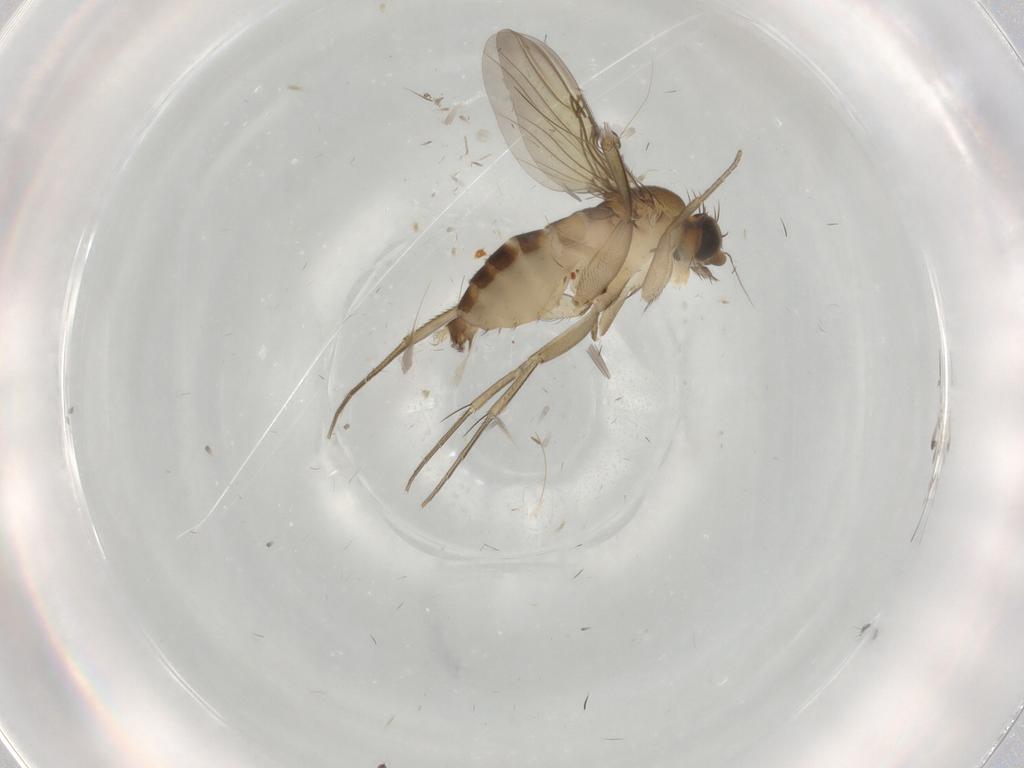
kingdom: Animalia
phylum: Arthropoda
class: Insecta
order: Diptera
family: Phoridae
